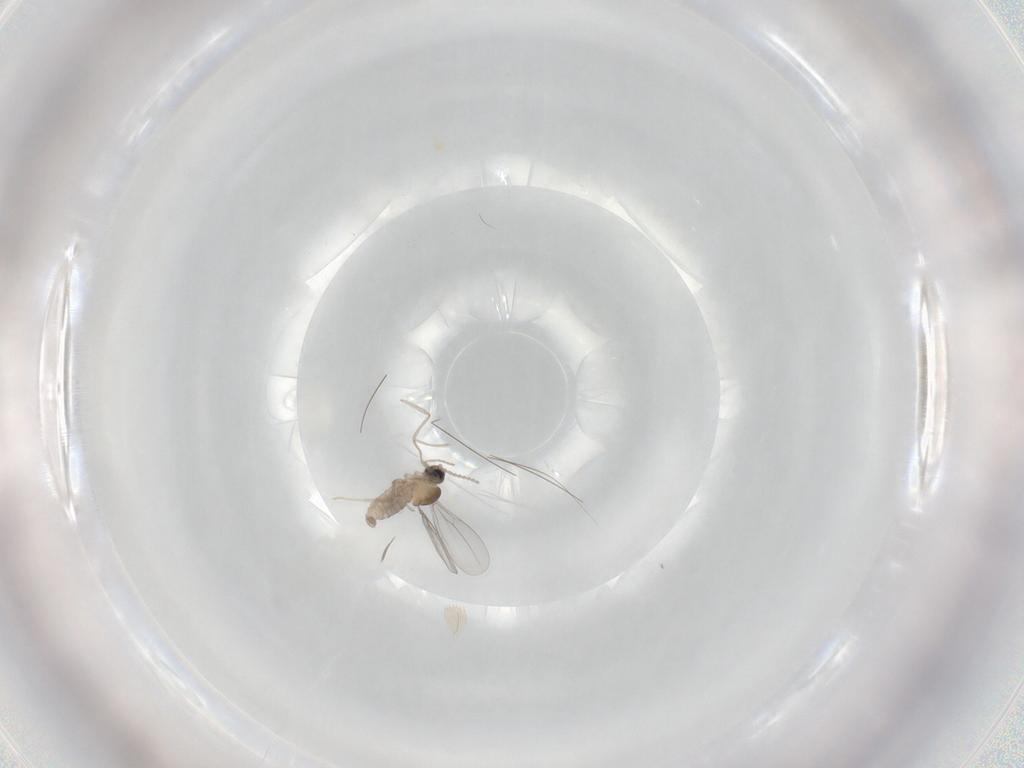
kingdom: Animalia
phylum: Arthropoda
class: Insecta
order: Diptera
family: Cecidomyiidae
